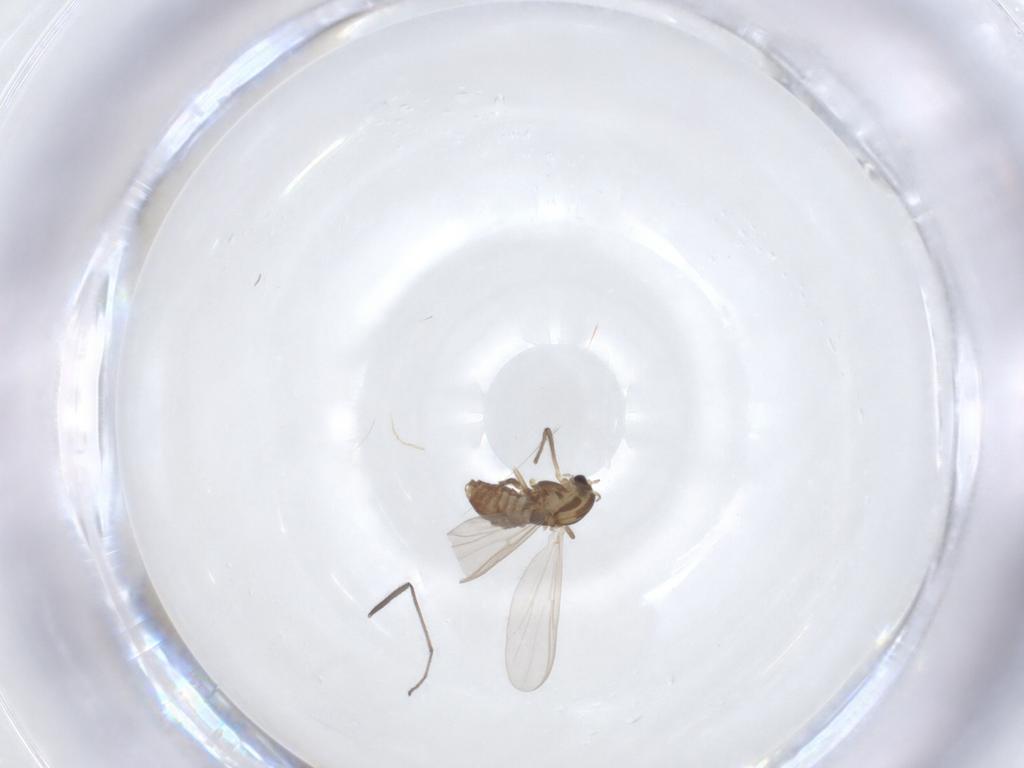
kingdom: Animalia
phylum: Arthropoda
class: Insecta
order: Diptera
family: Chironomidae
